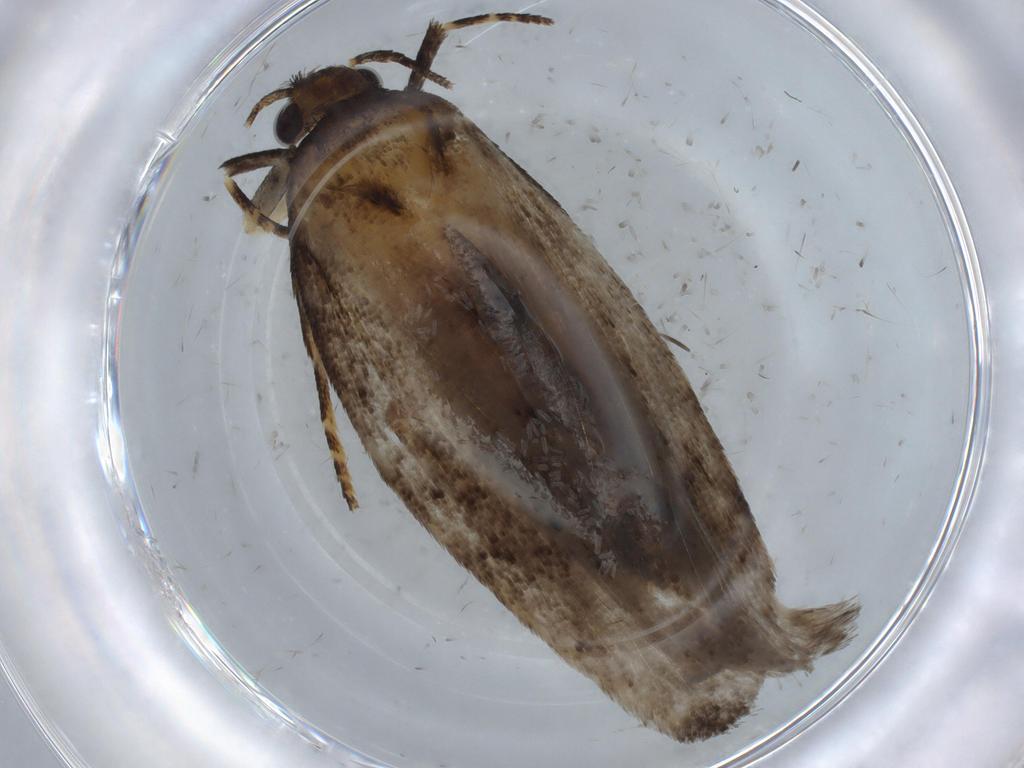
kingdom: Animalia
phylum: Arthropoda
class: Insecta
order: Lepidoptera
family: Gelechiidae
